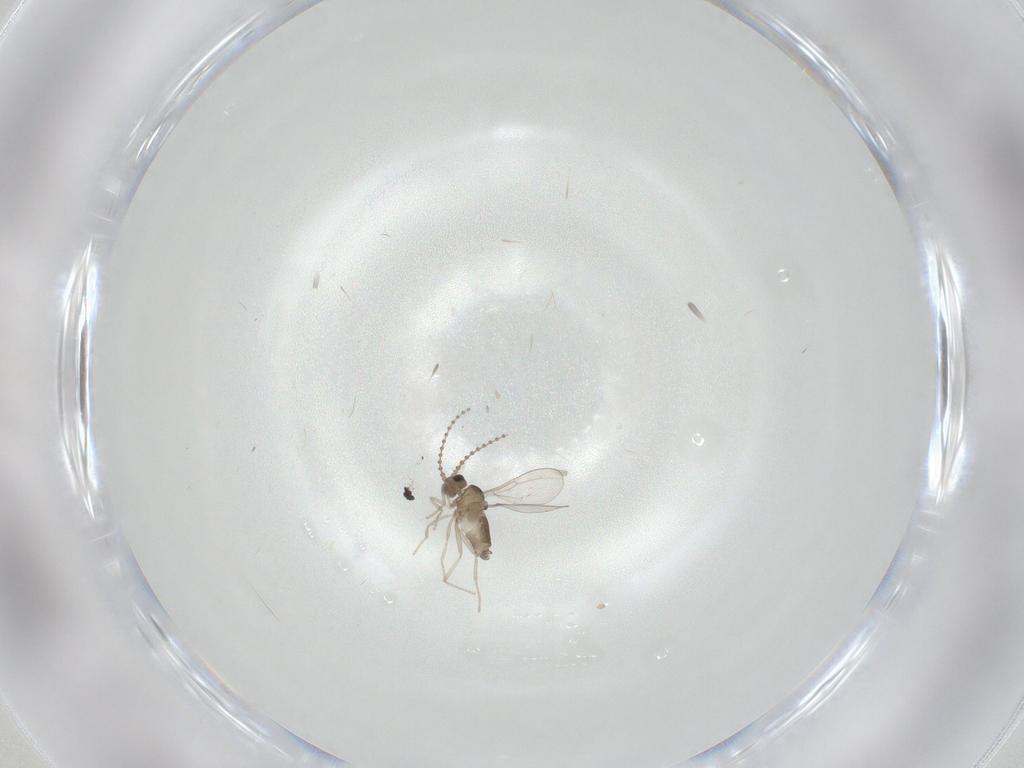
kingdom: Animalia
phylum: Arthropoda
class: Insecta
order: Diptera
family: Cecidomyiidae
